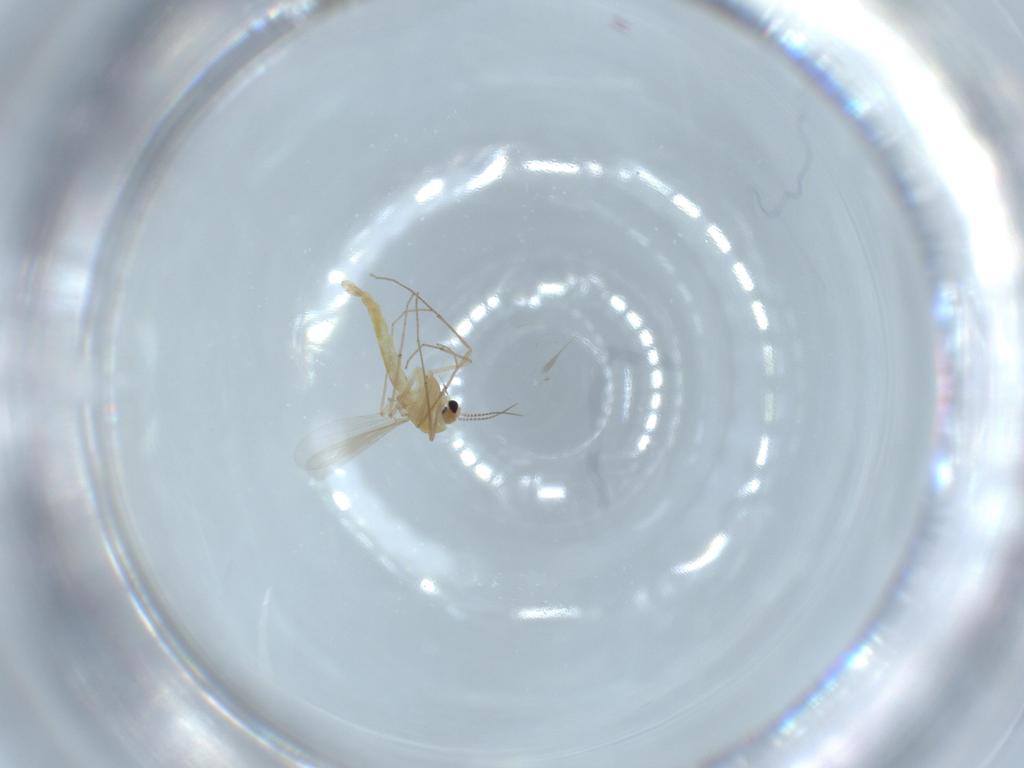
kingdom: Animalia
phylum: Arthropoda
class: Insecta
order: Diptera
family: Chironomidae
